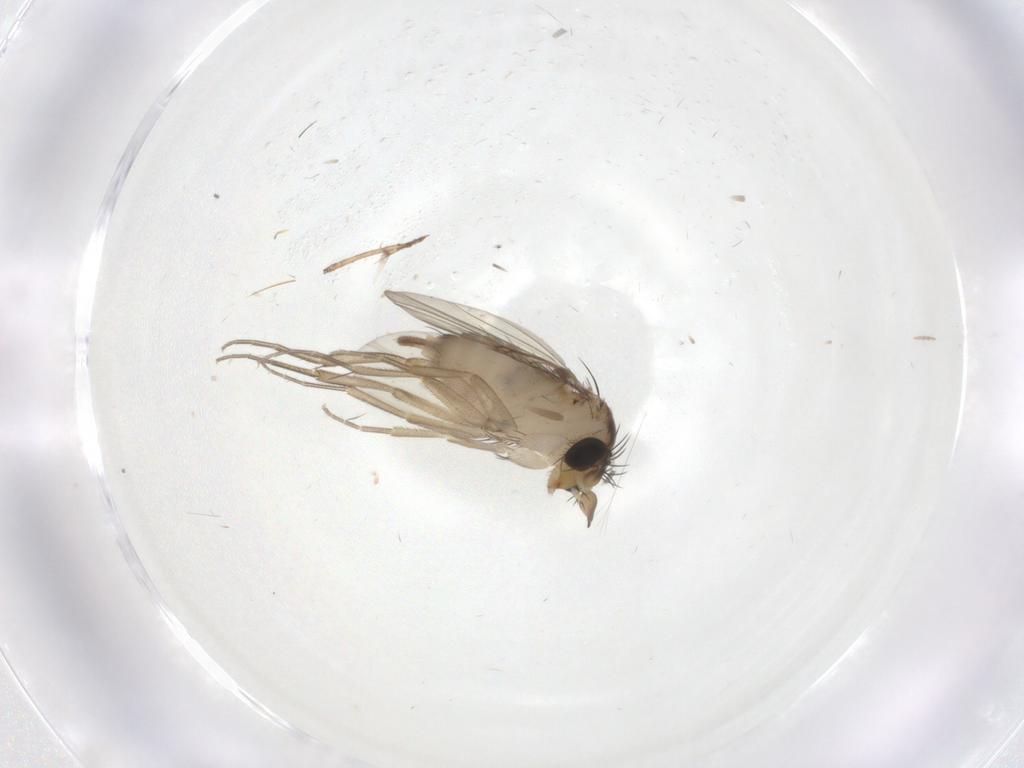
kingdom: Animalia
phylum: Arthropoda
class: Insecta
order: Diptera
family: Phoridae
